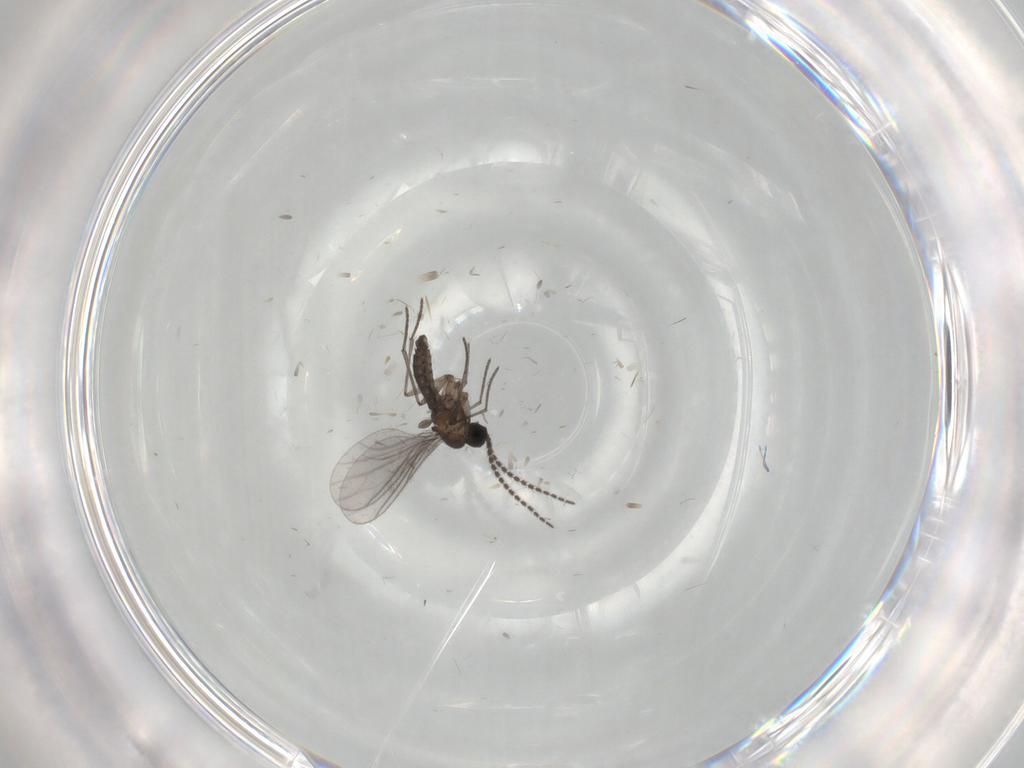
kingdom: Animalia
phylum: Arthropoda
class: Insecta
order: Diptera
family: Sciaridae
